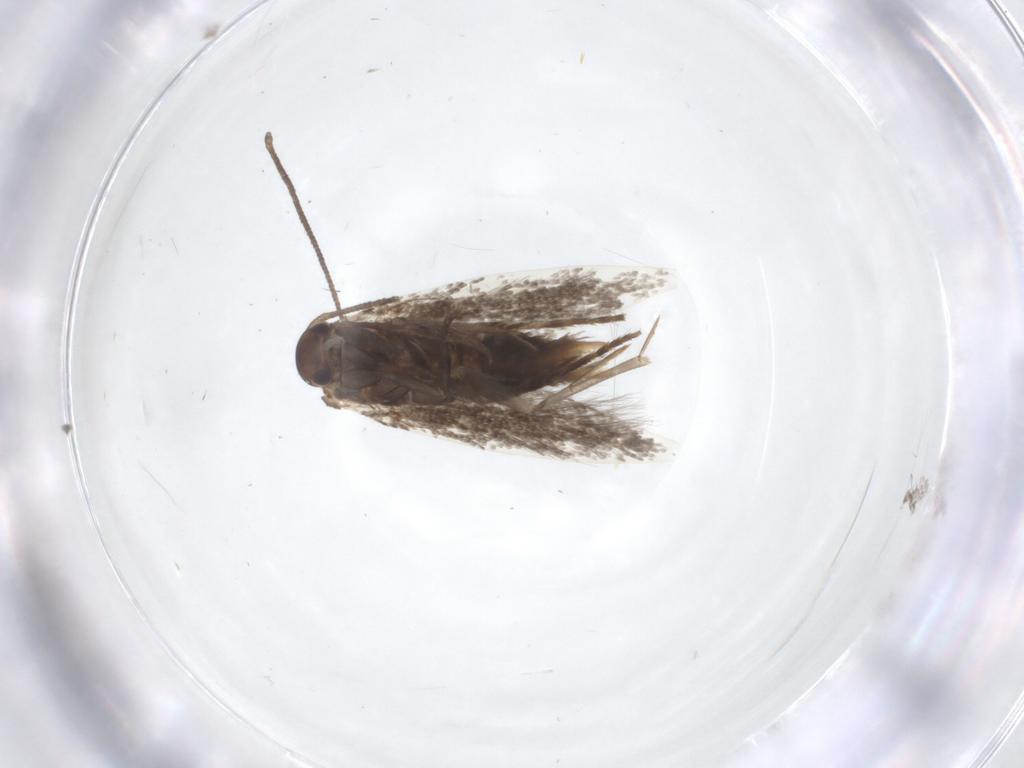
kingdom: Animalia
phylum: Arthropoda
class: Insecta
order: Lepidoptera
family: Elachistidae
